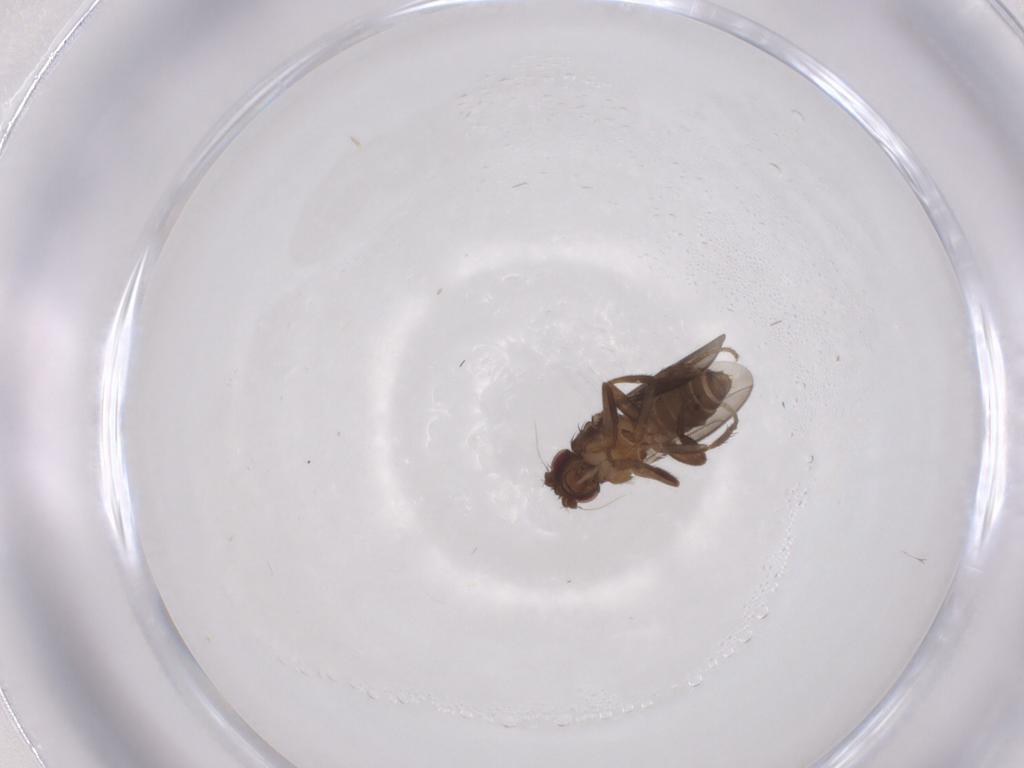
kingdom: Animalia
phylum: Arthropoda
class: Insecta
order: Diptera
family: Sphaeroceridae
